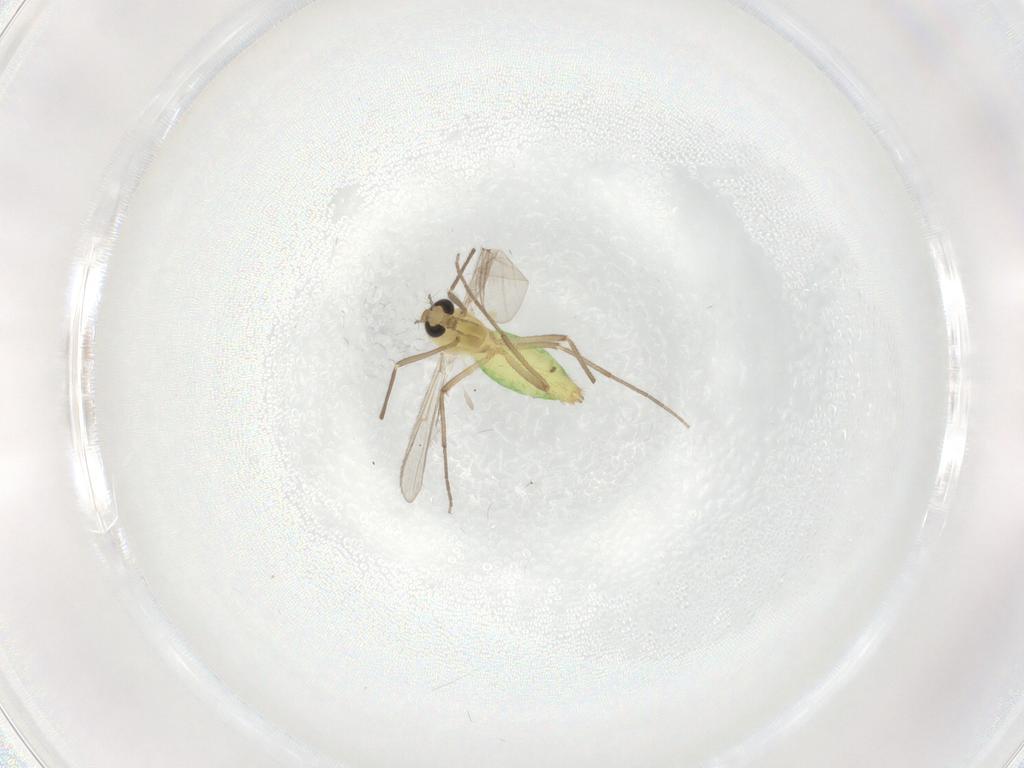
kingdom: Animalia
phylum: Arthropoda
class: Insecta
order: Diptera
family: Chironomidae
